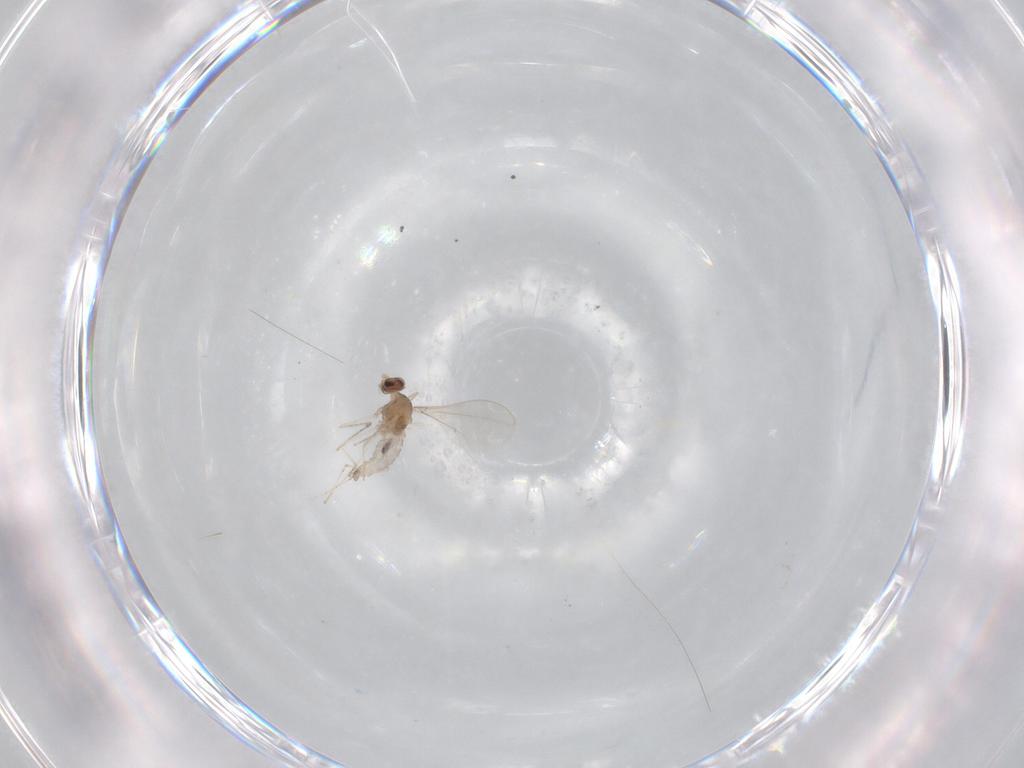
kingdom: Animalia
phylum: Arthropoda
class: Insecta
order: Diptera
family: Cecidomyiidae
